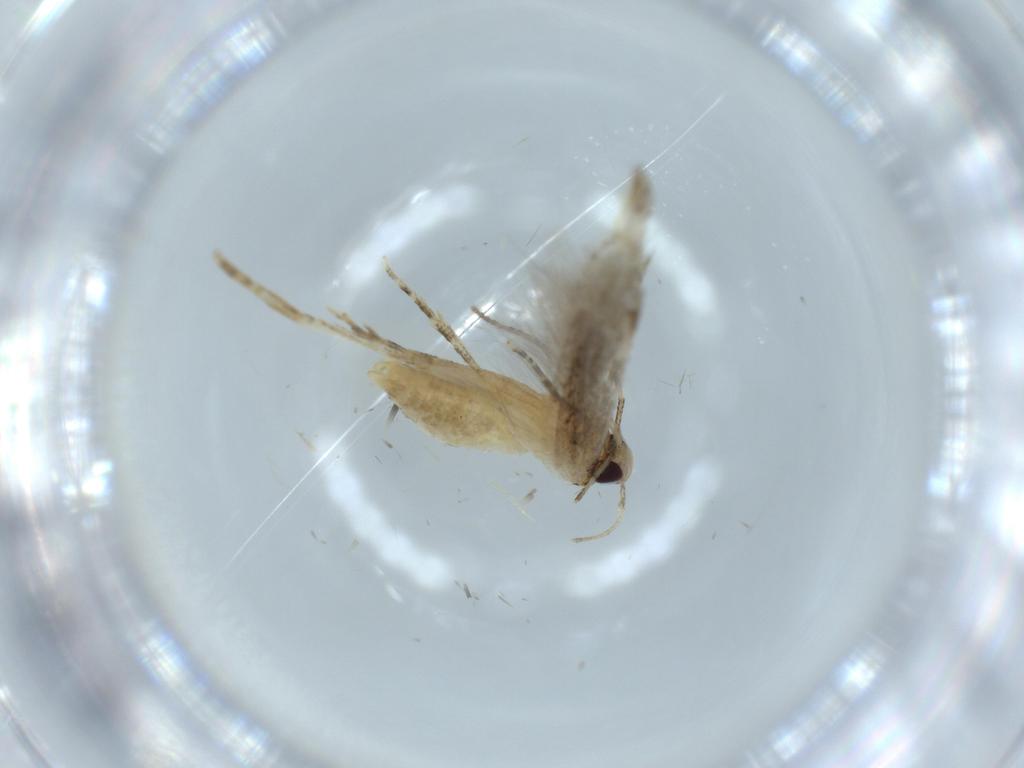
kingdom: Animalia
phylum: Arthropoda
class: Insecta
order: Lepidoptera
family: Stathmopodidae
